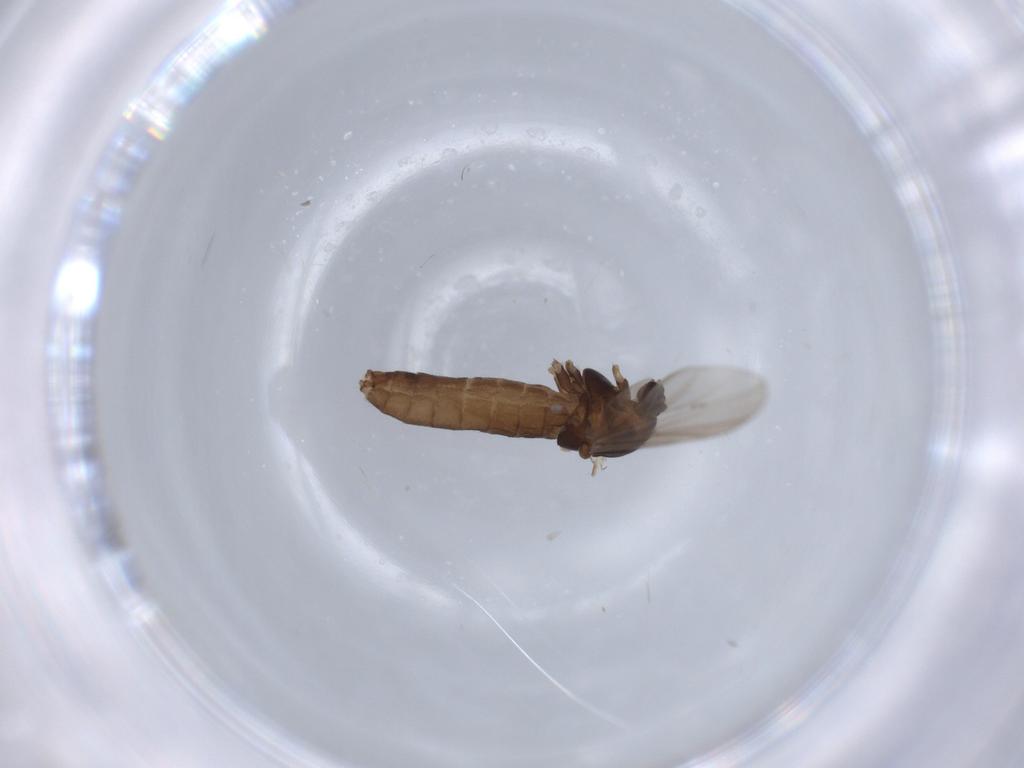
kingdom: Animalia
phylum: Arthropoda
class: Insecta
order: Diptera
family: Chironomidae
